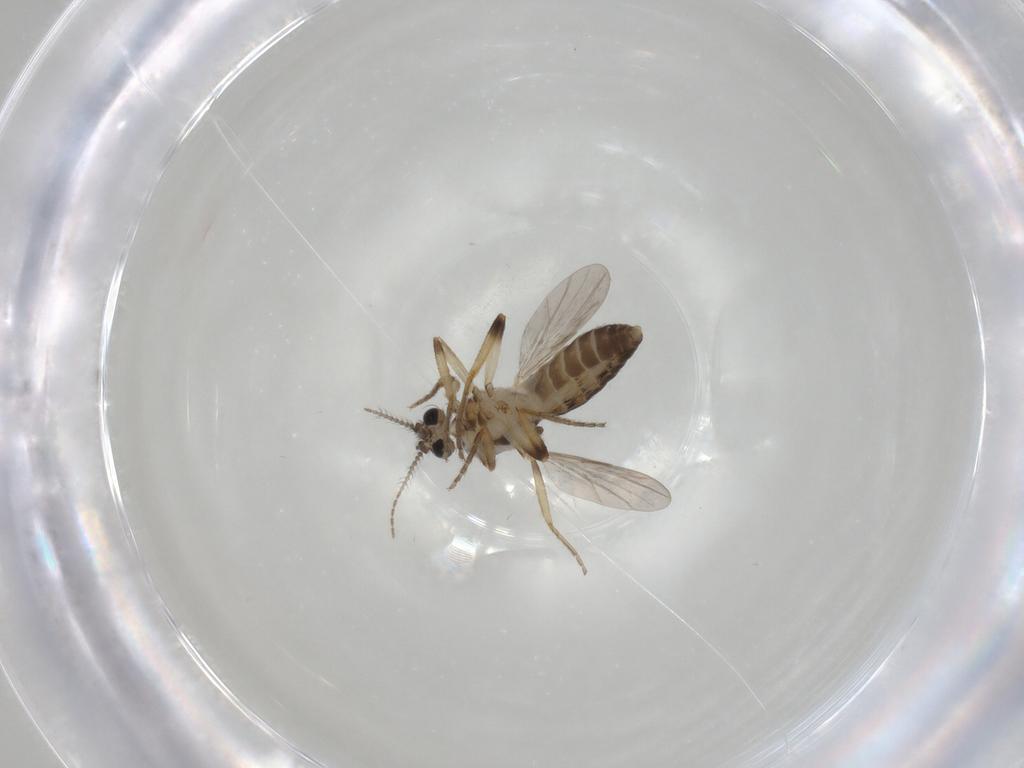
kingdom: Animalia
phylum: Arthropoda
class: Insecta
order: Diptera
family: Ceratopogonidae
